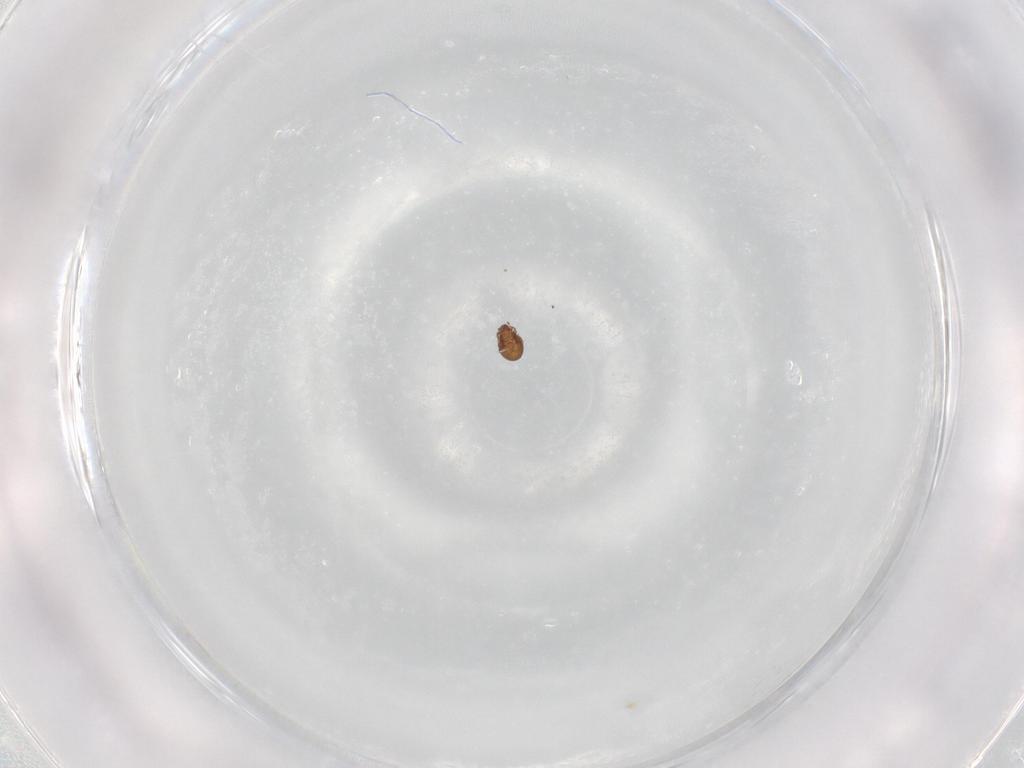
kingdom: Animalia
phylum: Arthropoda
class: Arachnida
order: Sarcoptiformes
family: Tectocepheidae
